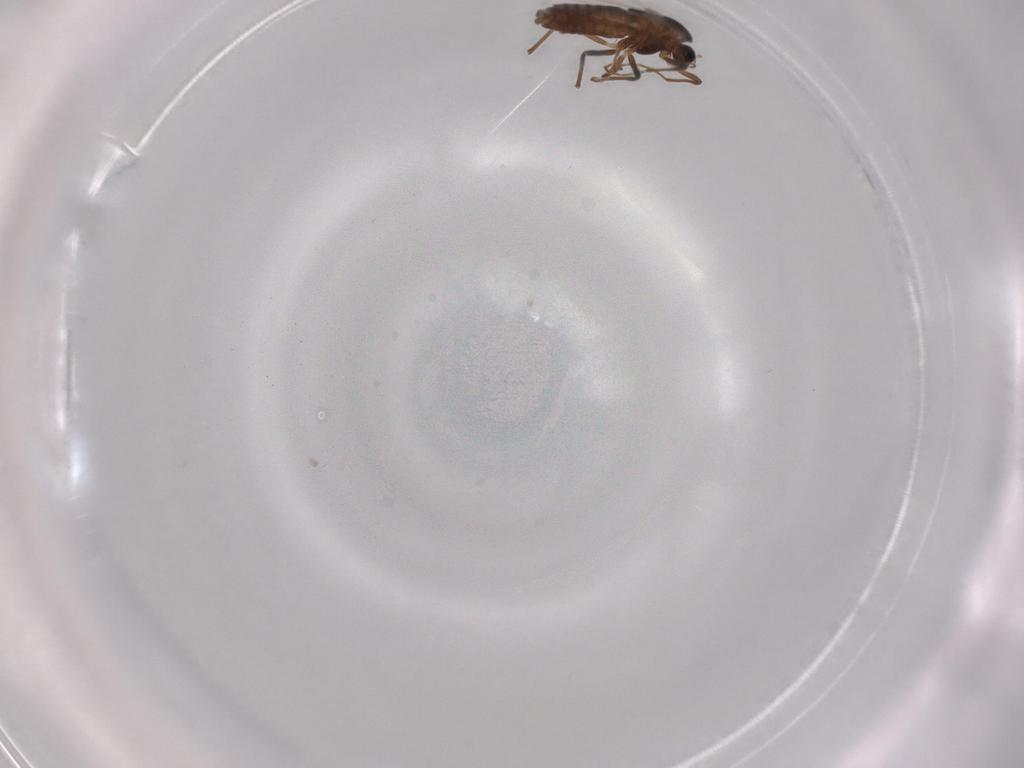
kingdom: Animalia
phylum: Arthropoda
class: Insecta
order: Diptera
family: Chironomidae
